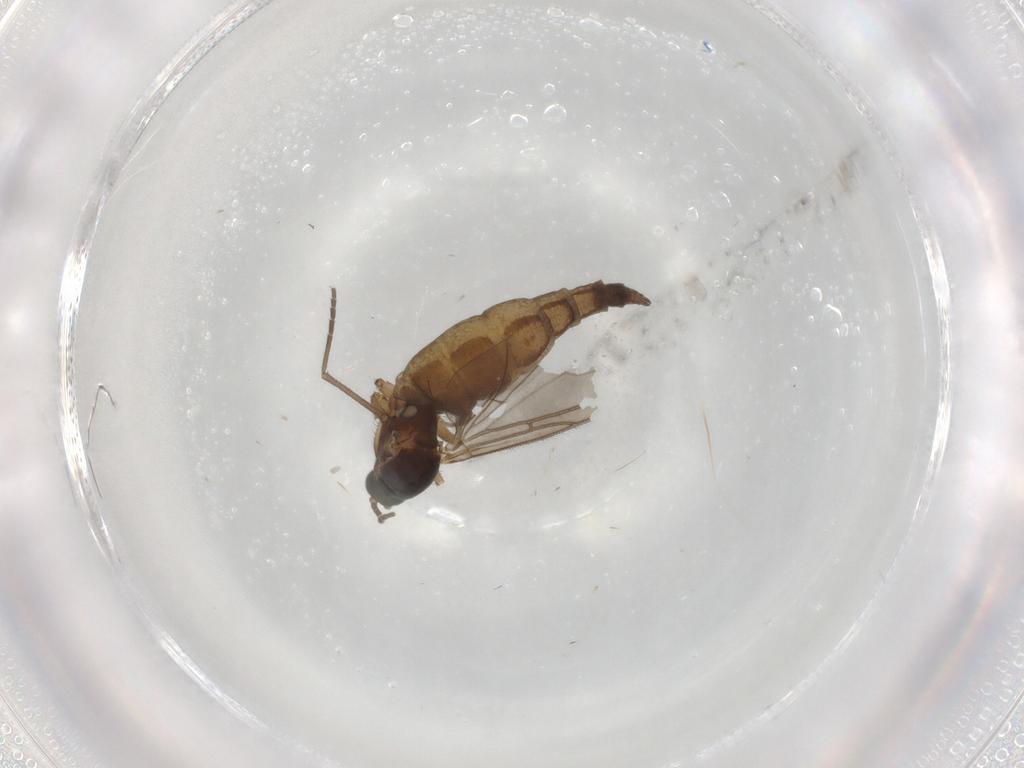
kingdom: Animalia
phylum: Arthropoda
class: Insecta
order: Diptera
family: Sciaridae
